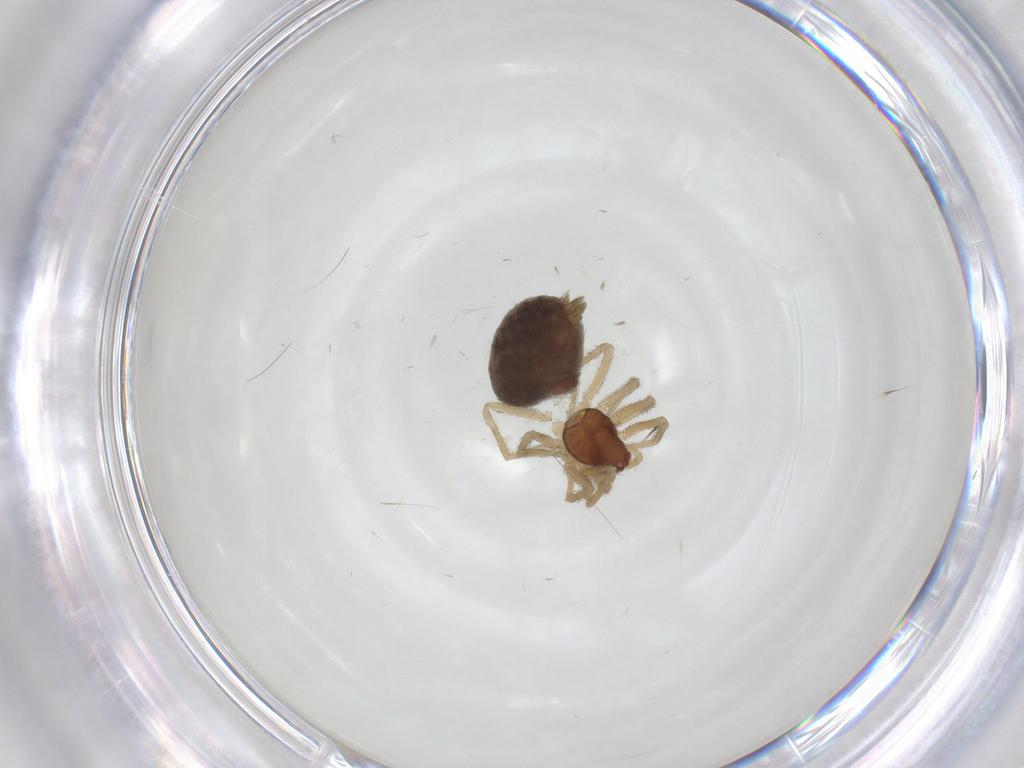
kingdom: Animalia
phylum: Arthropoda
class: Arachnida
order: Araneae
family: Dictynidae
